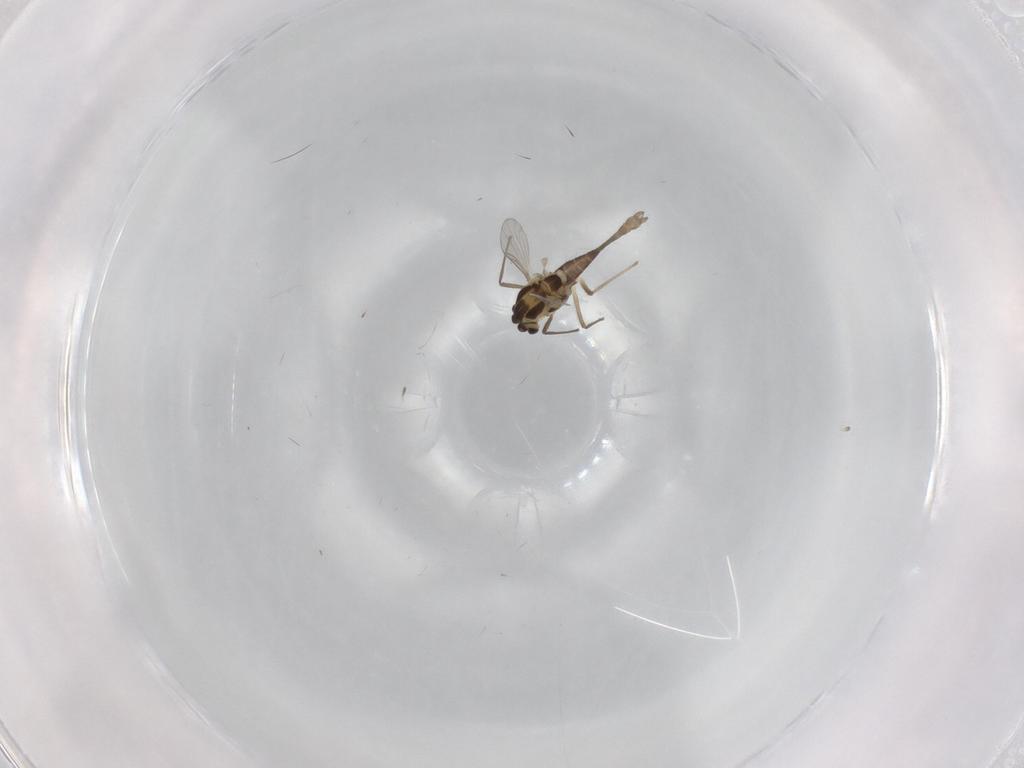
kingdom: Animalia
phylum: Arthropoda
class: Insecta
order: Diptera
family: Chironomidae
